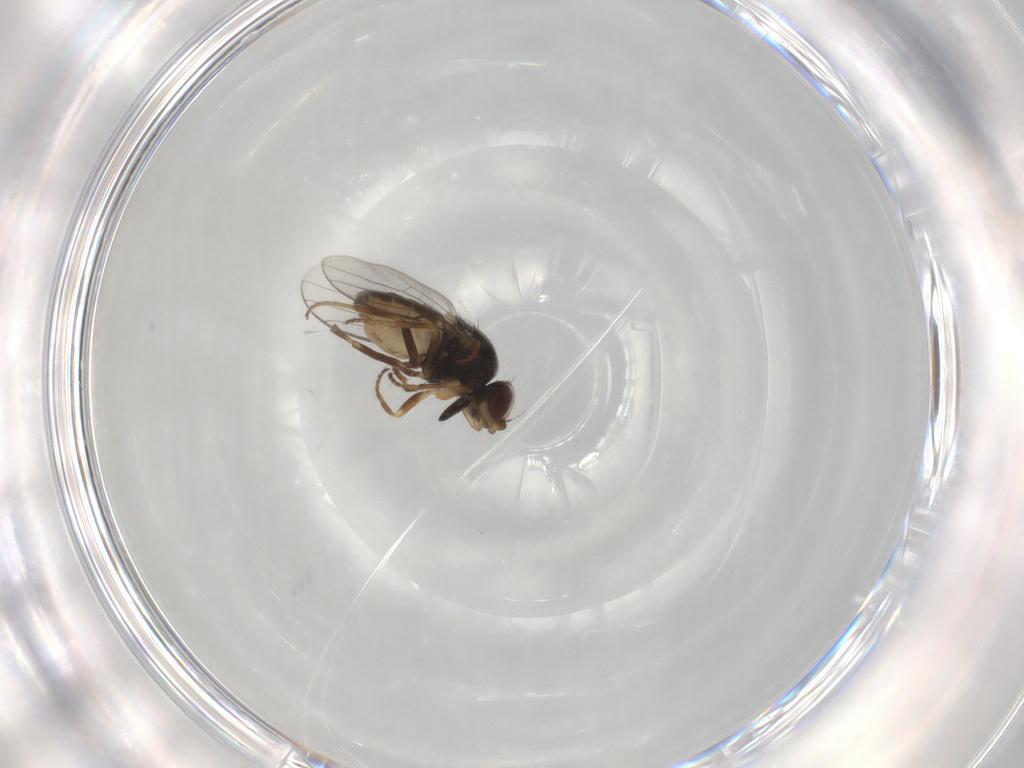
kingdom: Animalia
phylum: Arthropoda
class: Insecta
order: Diptera
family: Chloropidae
